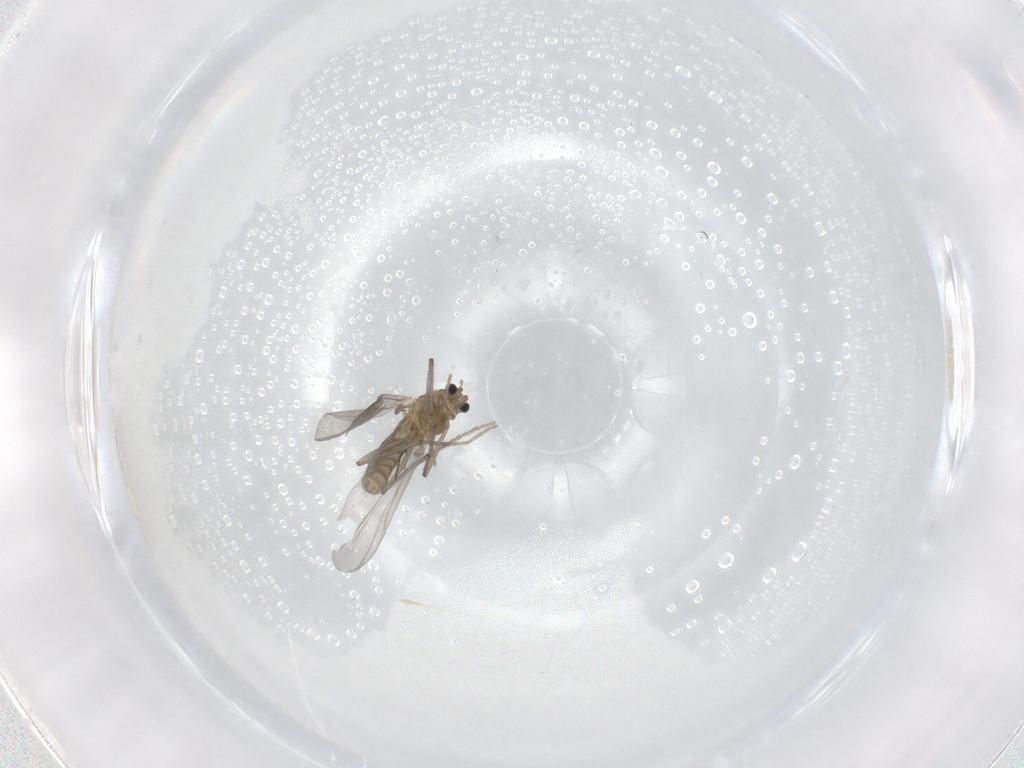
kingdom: Animalia
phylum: Arthropoda
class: Insecta
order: Diptera
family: Chironomidae
